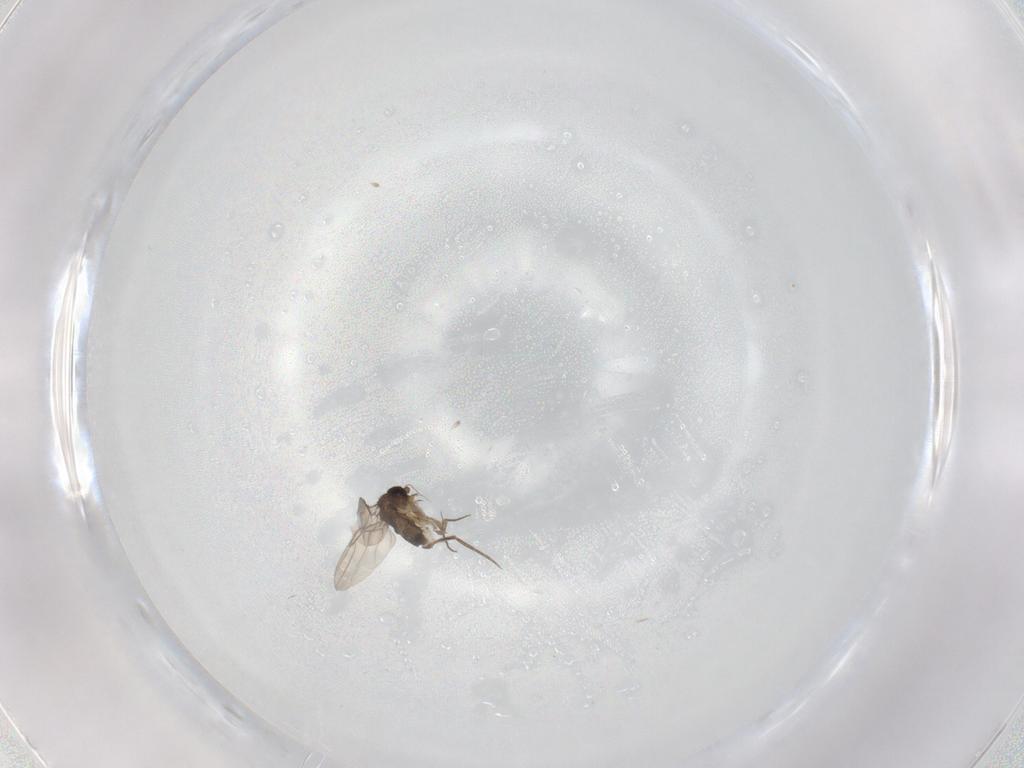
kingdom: Animalia
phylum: Arthropoda
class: Insecta
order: Diptera
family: Phoridae
